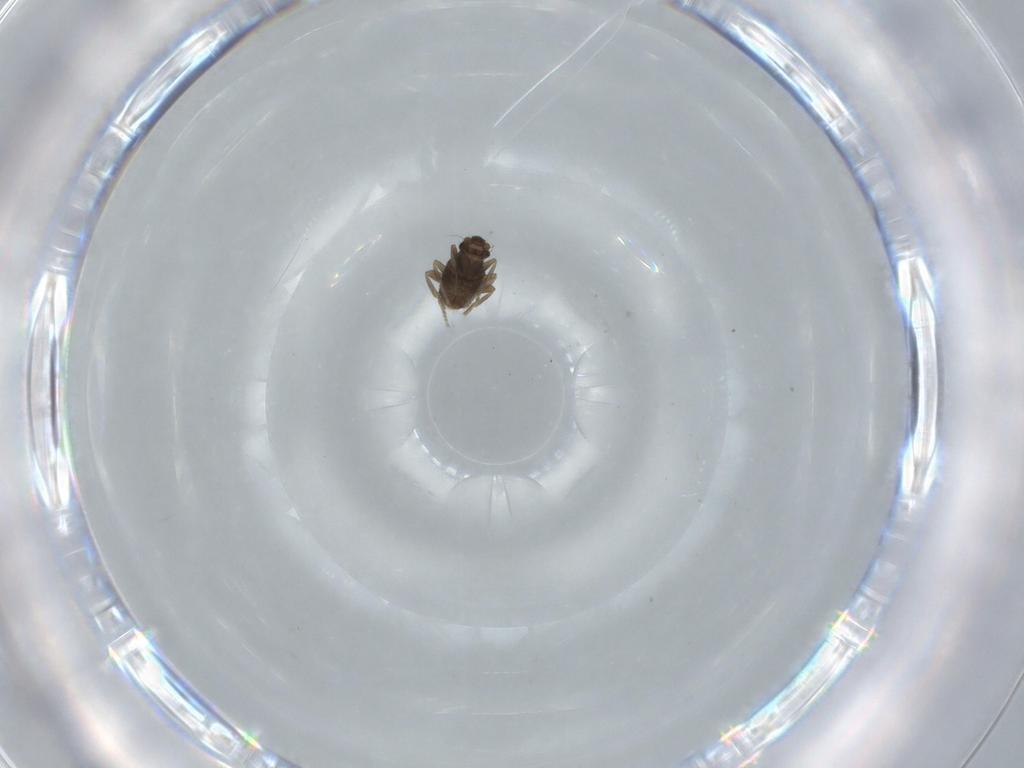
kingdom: Animalia
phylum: Arthropoda
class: Insecta
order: Diptera
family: Phoridae
